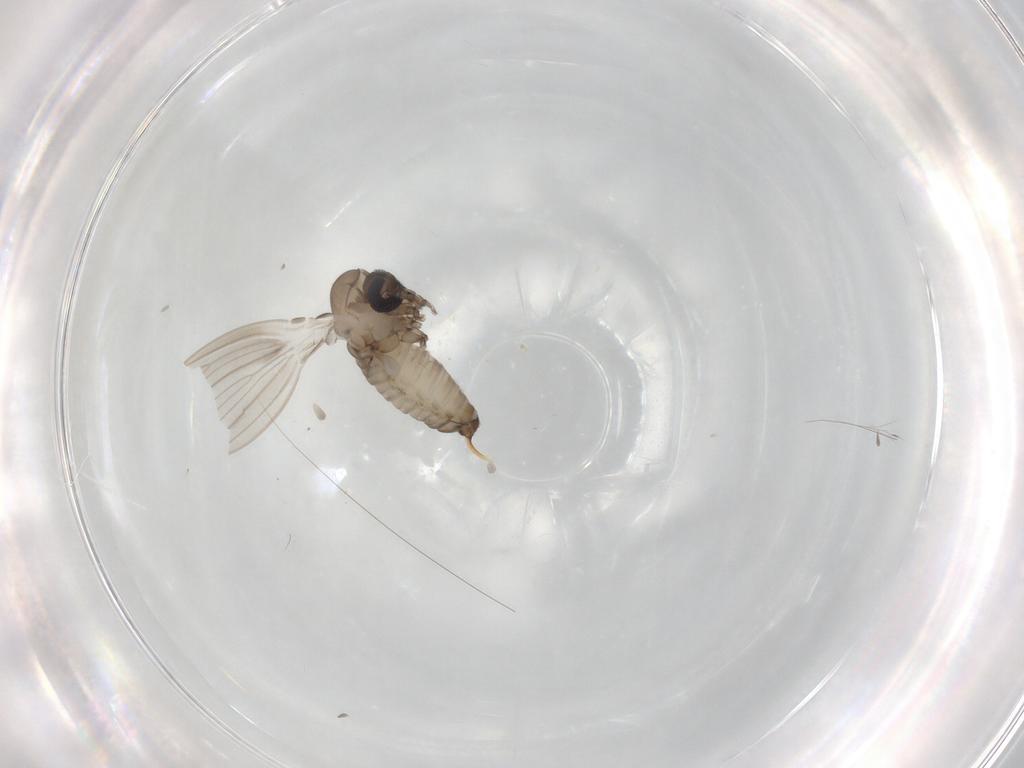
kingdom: Animalia
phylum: Arthropoda
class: Insecta
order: Diptera
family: Psychodidae
